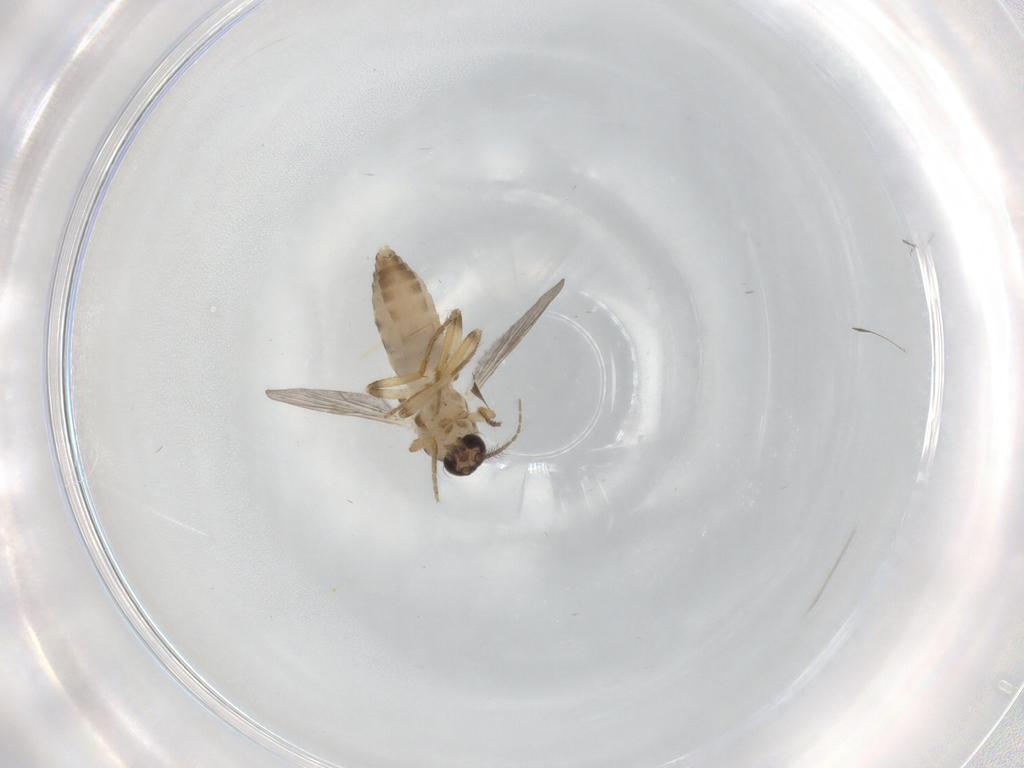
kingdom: Animalia
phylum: Arthropoda
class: Insecta
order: Diptera
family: Ceratopogonidae
